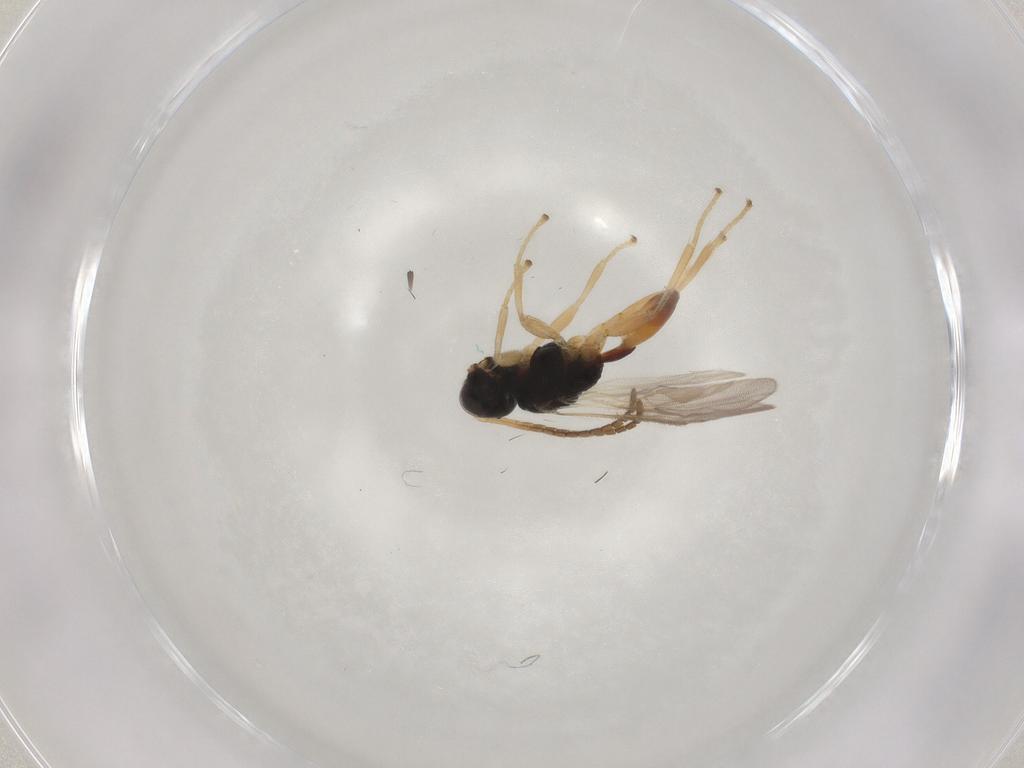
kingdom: Animalia
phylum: Arthropoda
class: Insecta
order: Hymenoptera
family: Braconidae
